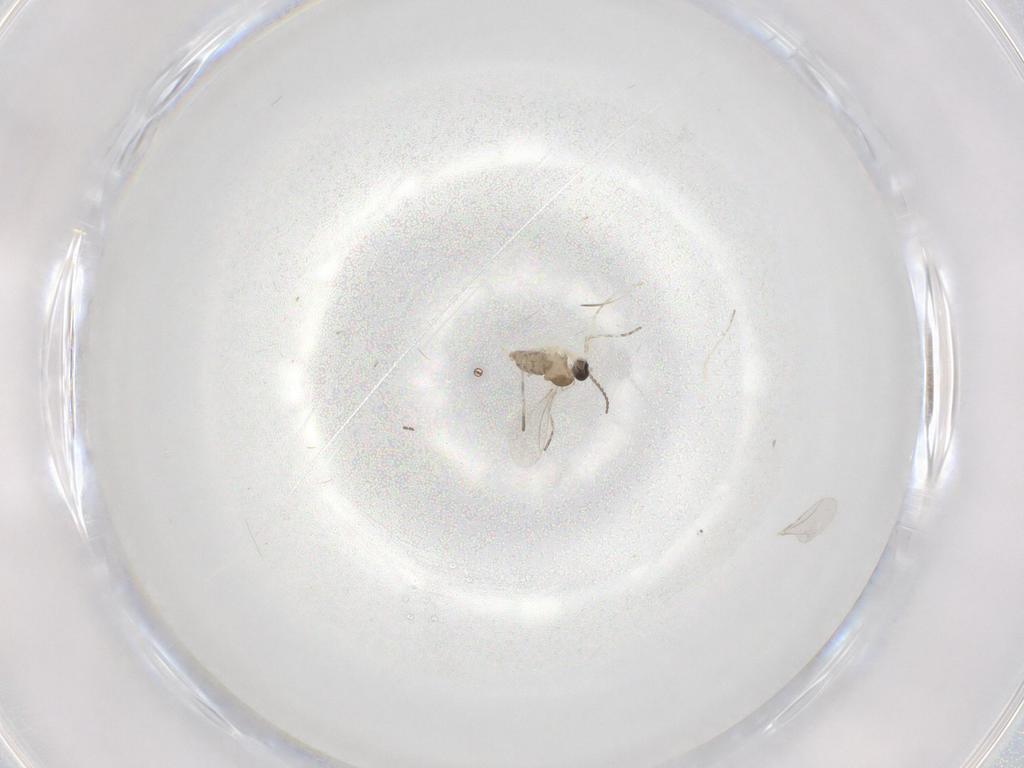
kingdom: Animalia
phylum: Arthropoda
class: Insecta
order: Diptera
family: Cecidomyiidae
